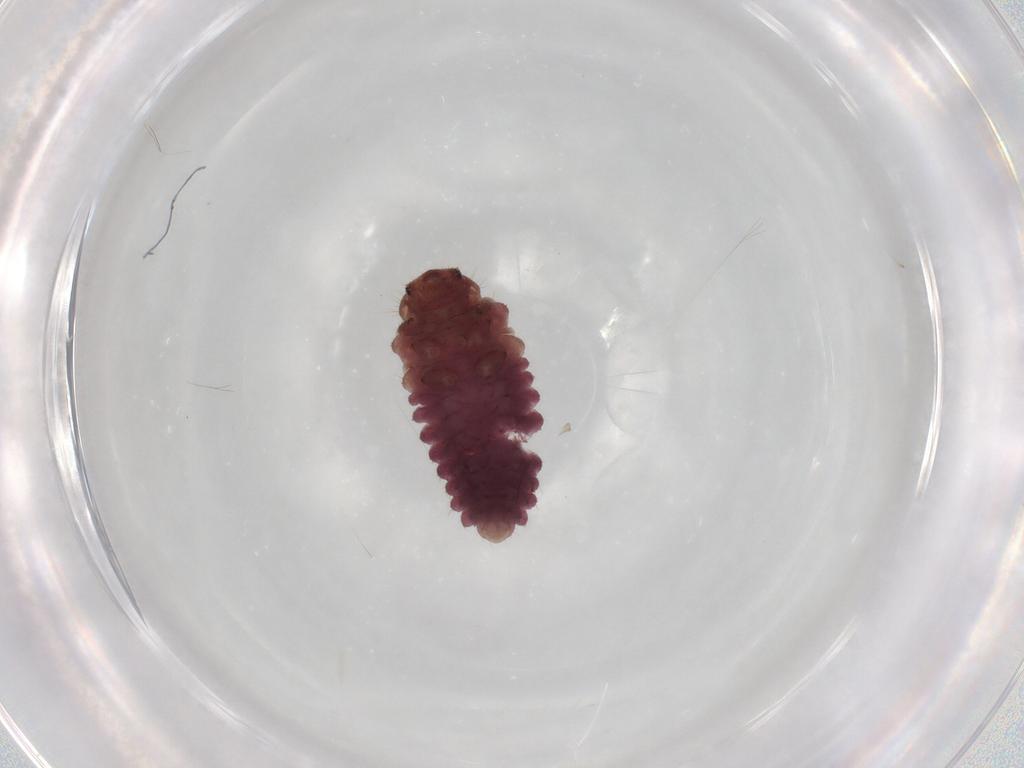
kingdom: Animalia
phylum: Arthropoda
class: Insecta
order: Coleoptera
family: Coccinellidae
